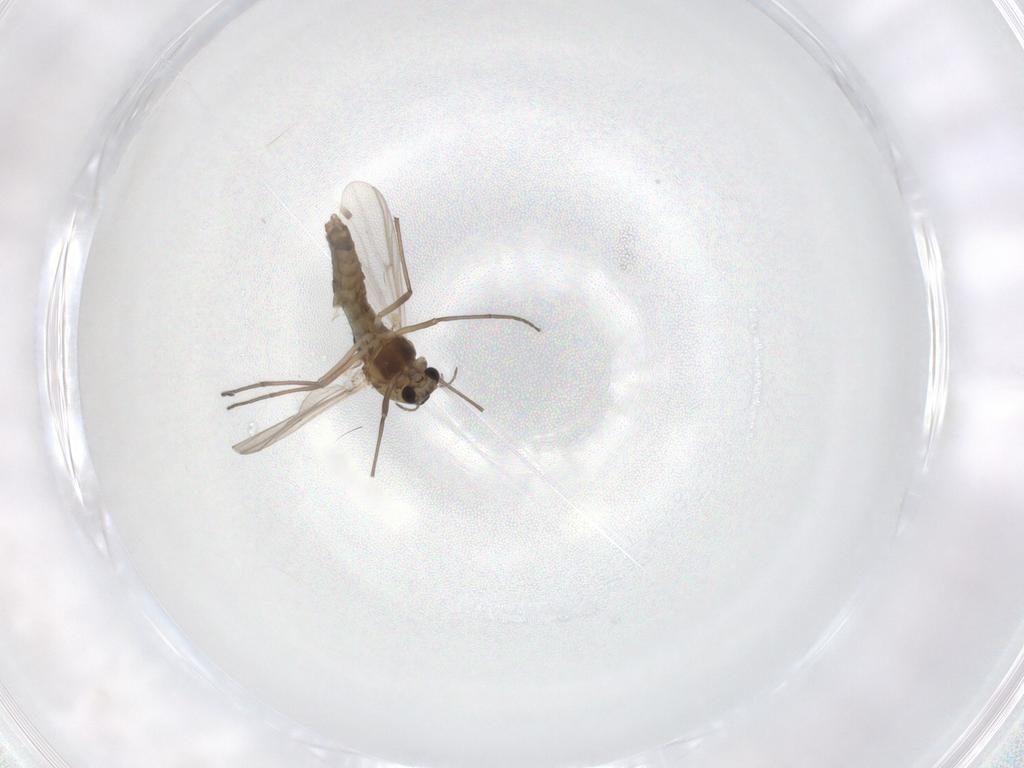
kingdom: Animalia
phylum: Arthropoda
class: Insecta
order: Diptera
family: Chironomidae
